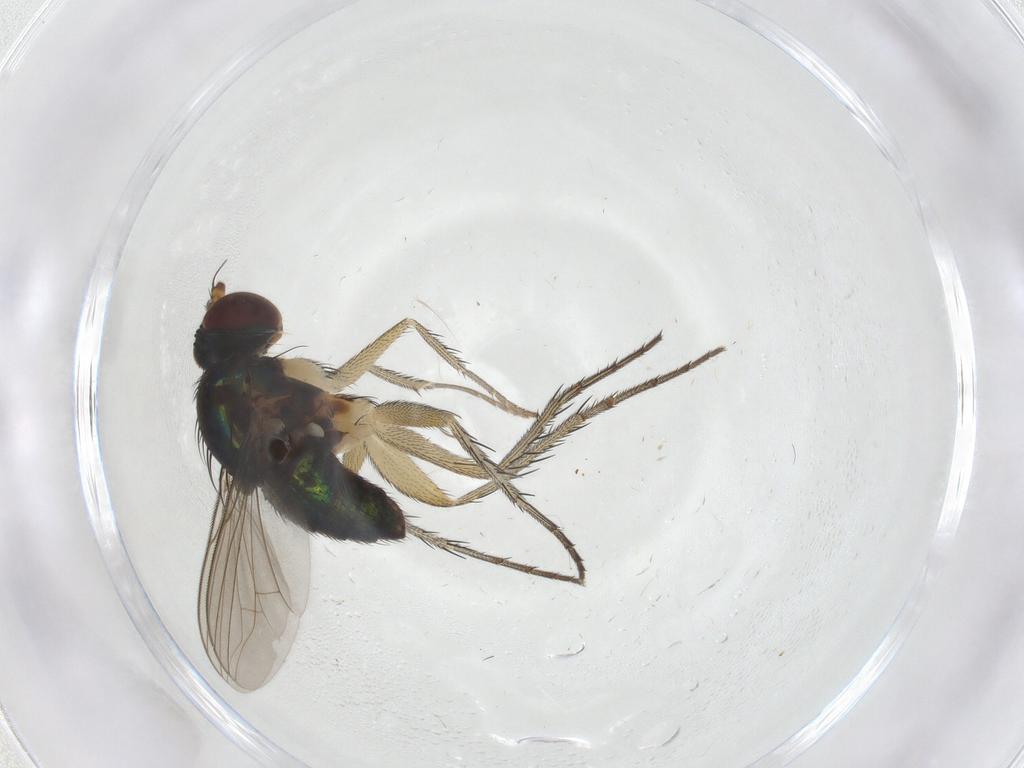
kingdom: Animalia
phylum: Arthropoda
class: Insecta
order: Diptera
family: Dolichopodidae
